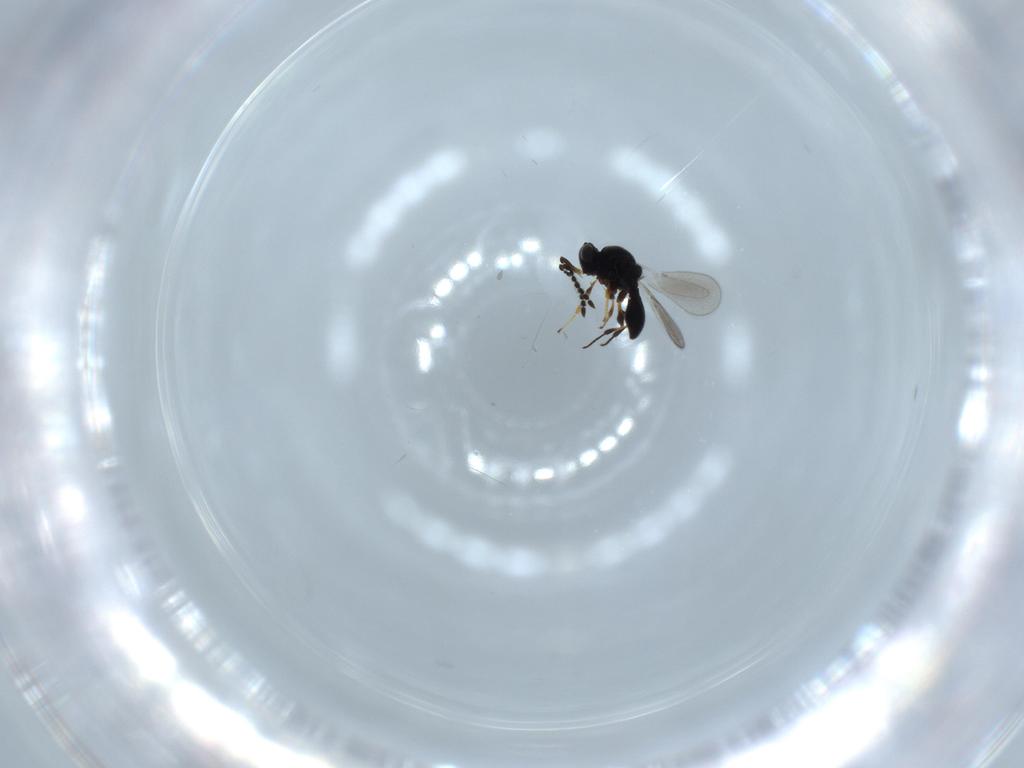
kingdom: Animalia
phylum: Arthropoda
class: Insecta
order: Hymenoptera
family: Platygastridae
